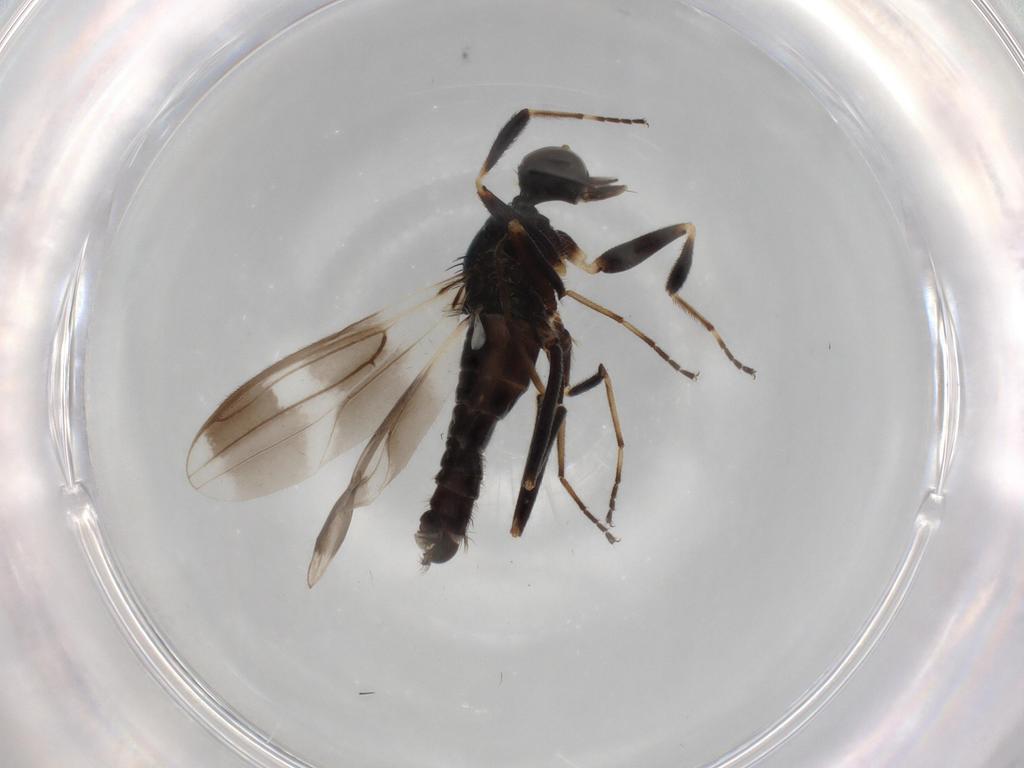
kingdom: Animalia
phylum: Arthropoda
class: Insecta
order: Diptera
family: Hybotidae
